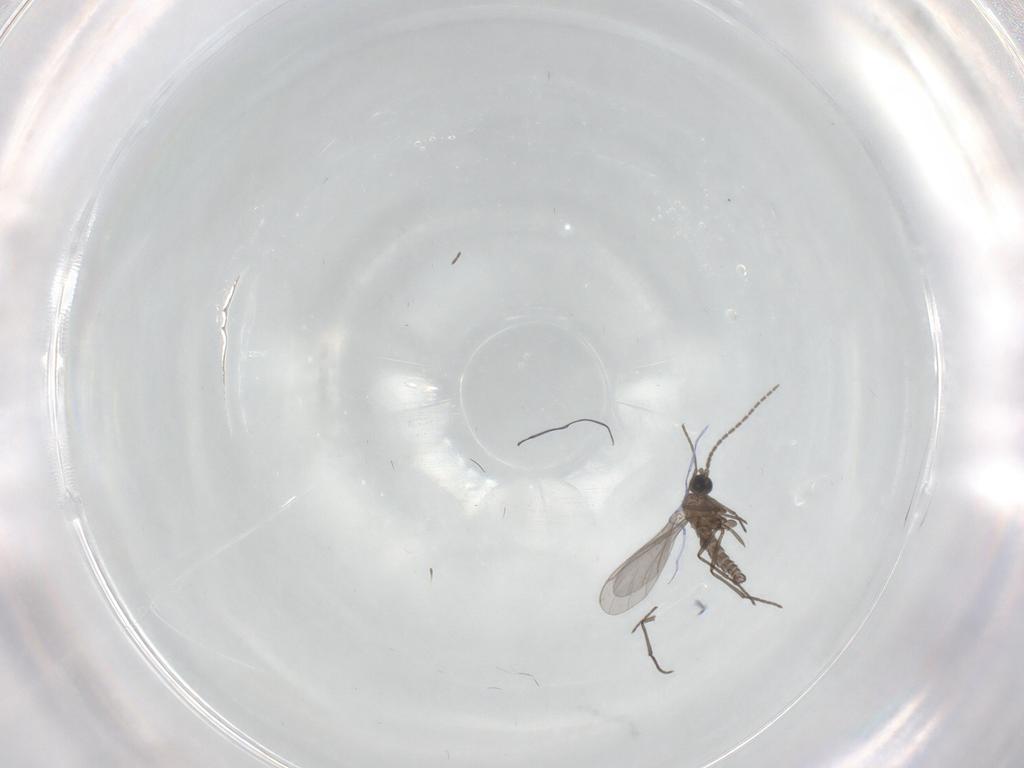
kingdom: Animalia
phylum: Arthropoda
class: Insecta
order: Diptera
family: Sciaridae
